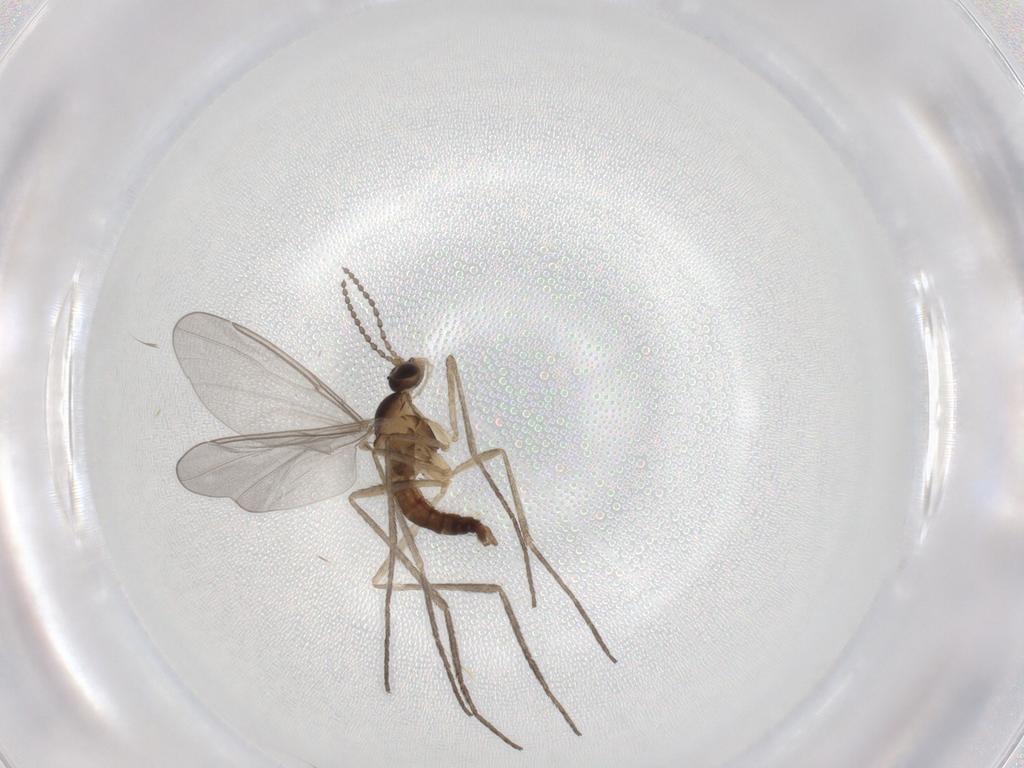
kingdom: Animalia
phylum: Arthropoda
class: Insecta
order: Diptera
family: Cecidomyiidae
